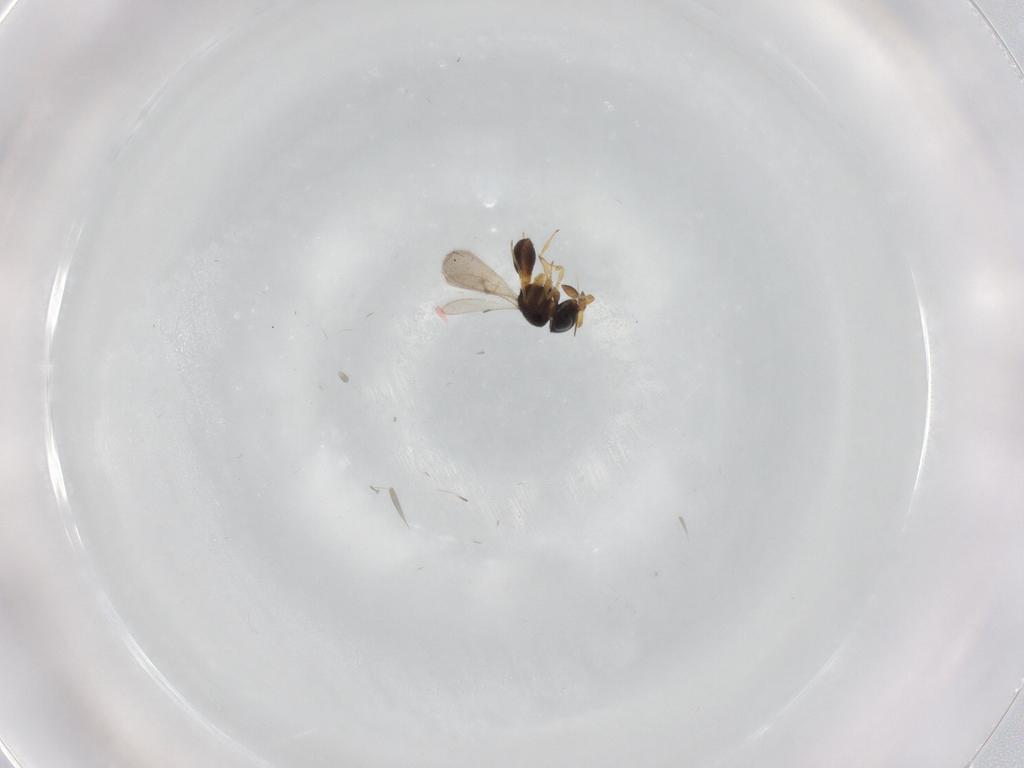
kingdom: Animalia
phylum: Arthropoda
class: Insecta
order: Hymenoptera
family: Scelionidae
